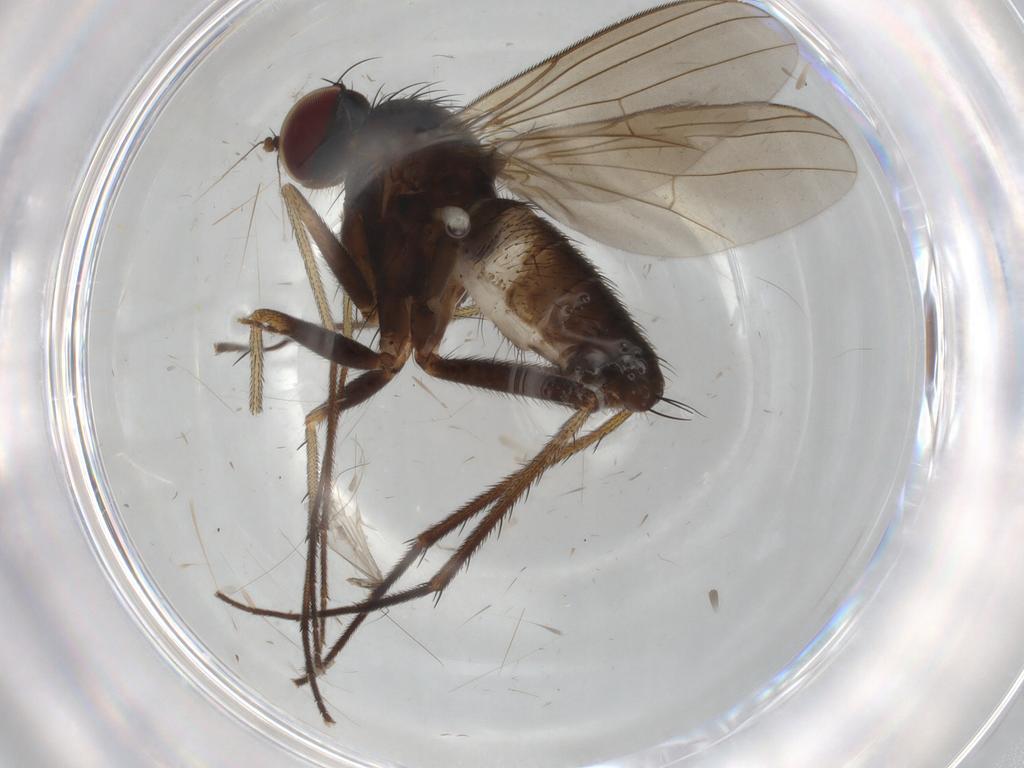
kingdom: Animalia
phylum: Arthropoda
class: Insecta
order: Diptera
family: Dolichopodidae
